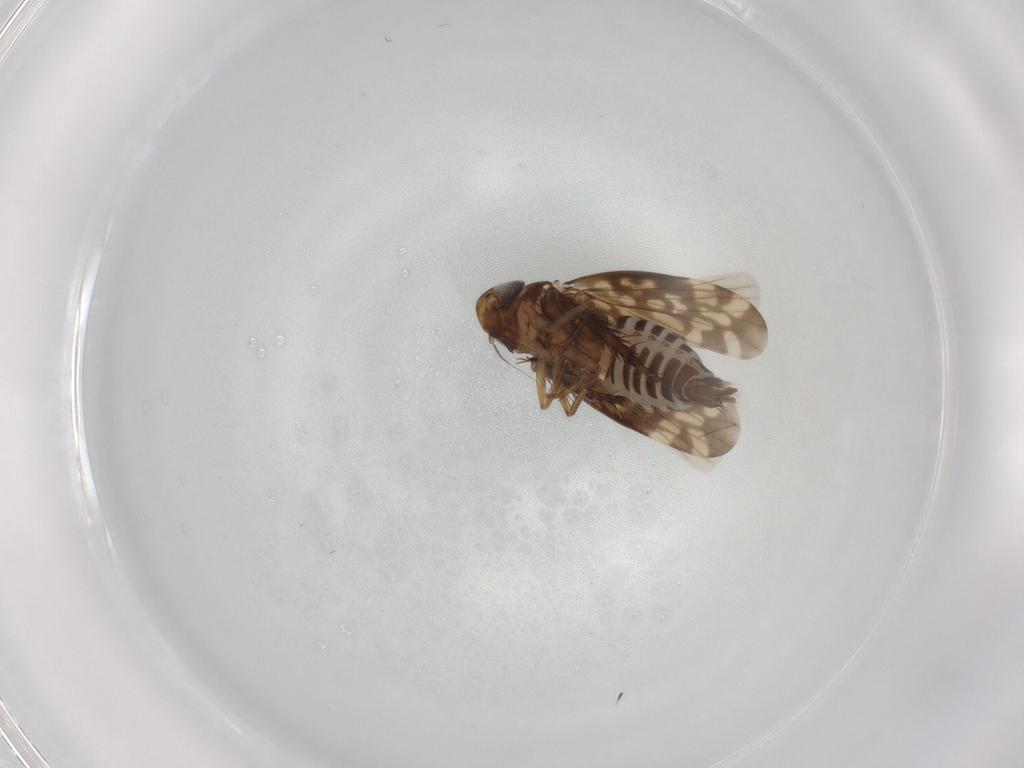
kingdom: Animalia
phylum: Arthropoda
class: Insecta
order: Hemiptera
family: Cicadellidae
